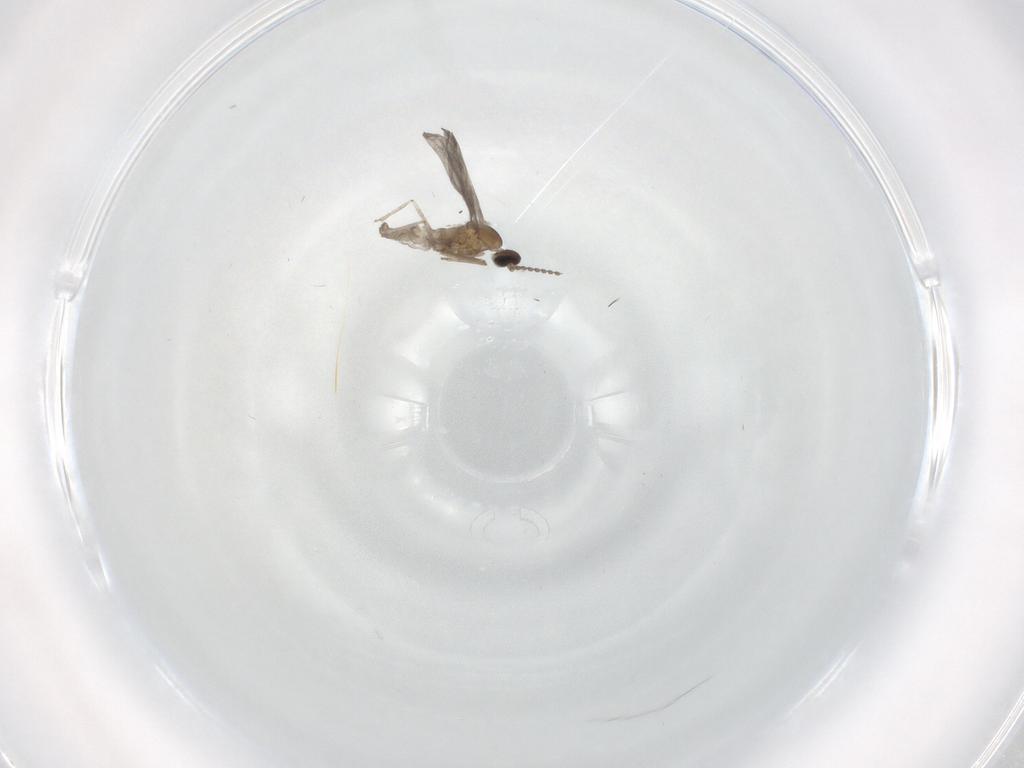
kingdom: Animalia
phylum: Arthropoda
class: Insecta
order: Diptera
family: Cecidomyiidae
